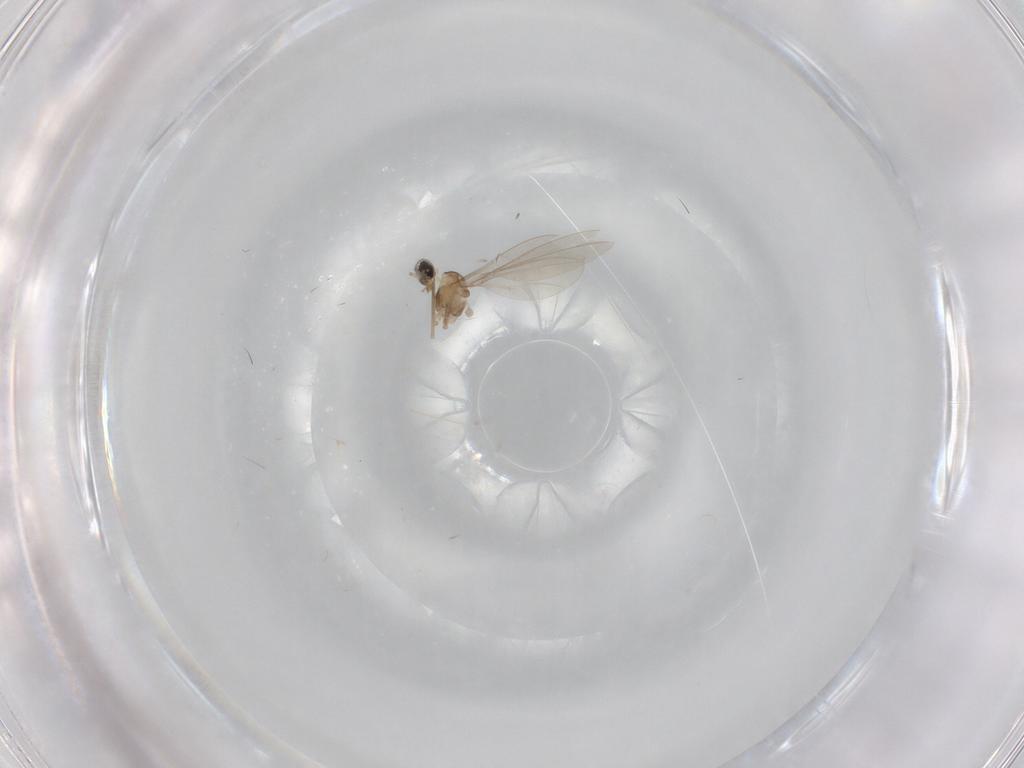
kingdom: Animalia
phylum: Arthropoda
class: Insecta
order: Diptera
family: Cecidomyiidae
